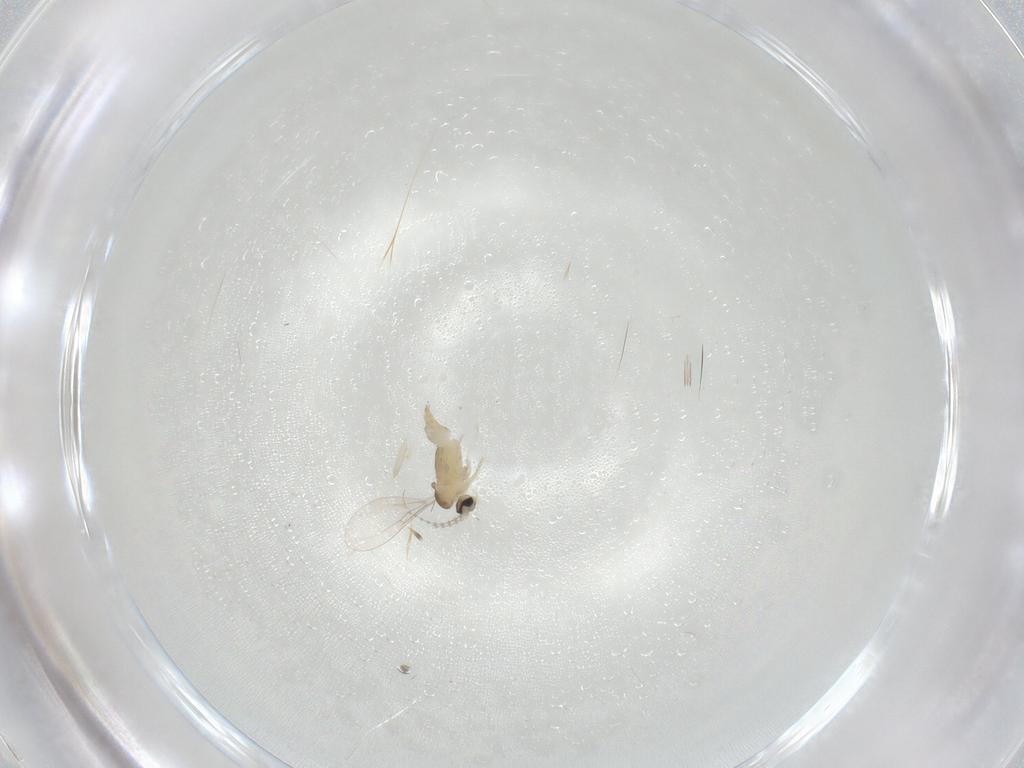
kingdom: Animalia
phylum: Arthropoda
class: Insecta
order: Diptera
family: Cecidomyiidae
